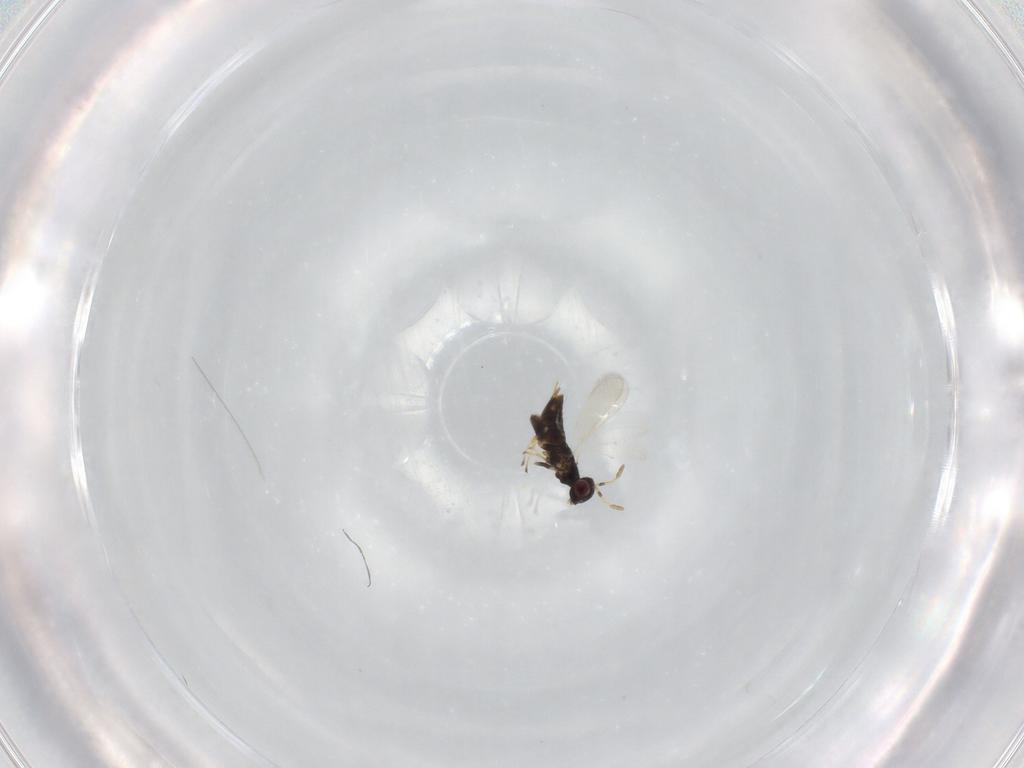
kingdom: Animalia
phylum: Arthropoda
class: Insecta
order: Hymenoptera
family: Aphelinidae
